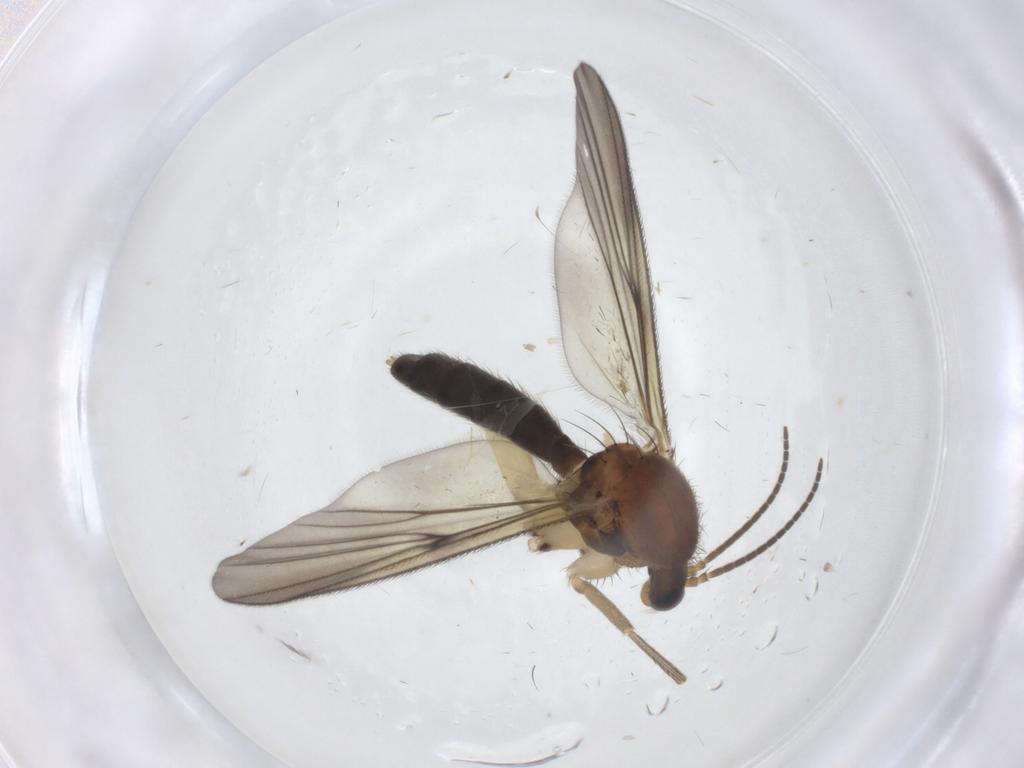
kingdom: Animalia
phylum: Arthropoda
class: Insecta
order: Diptera
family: Mycetophilidae
